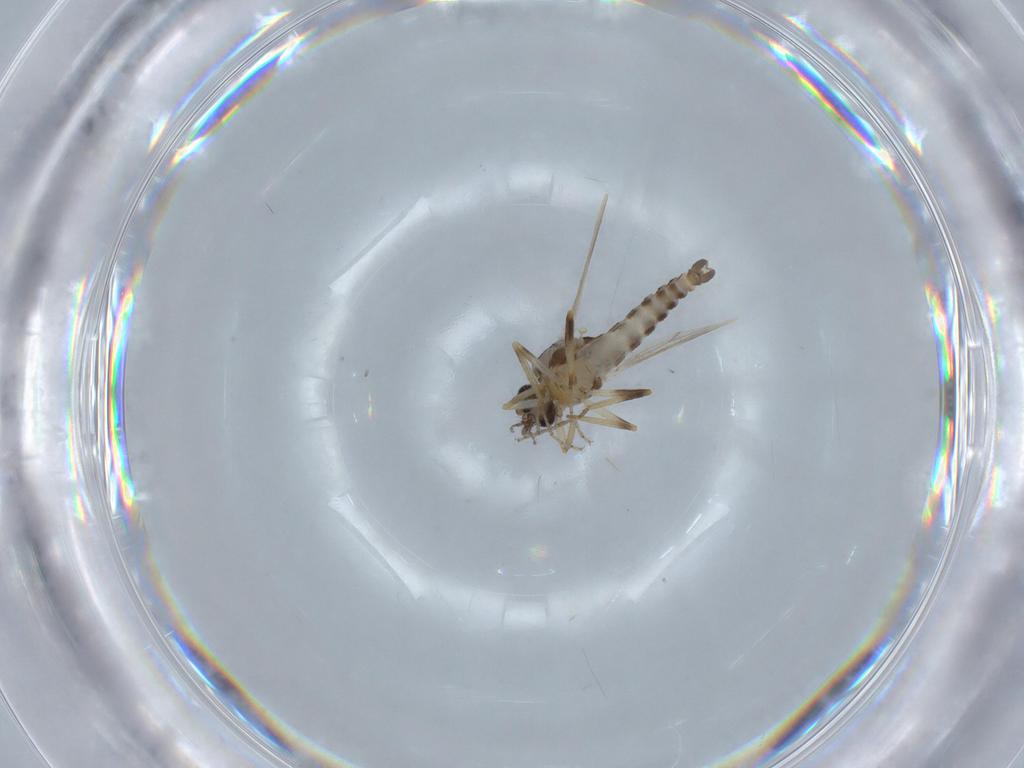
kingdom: Animalia
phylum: Arthropoda
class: Insecta
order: Diptera
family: Ceratopogonidae
